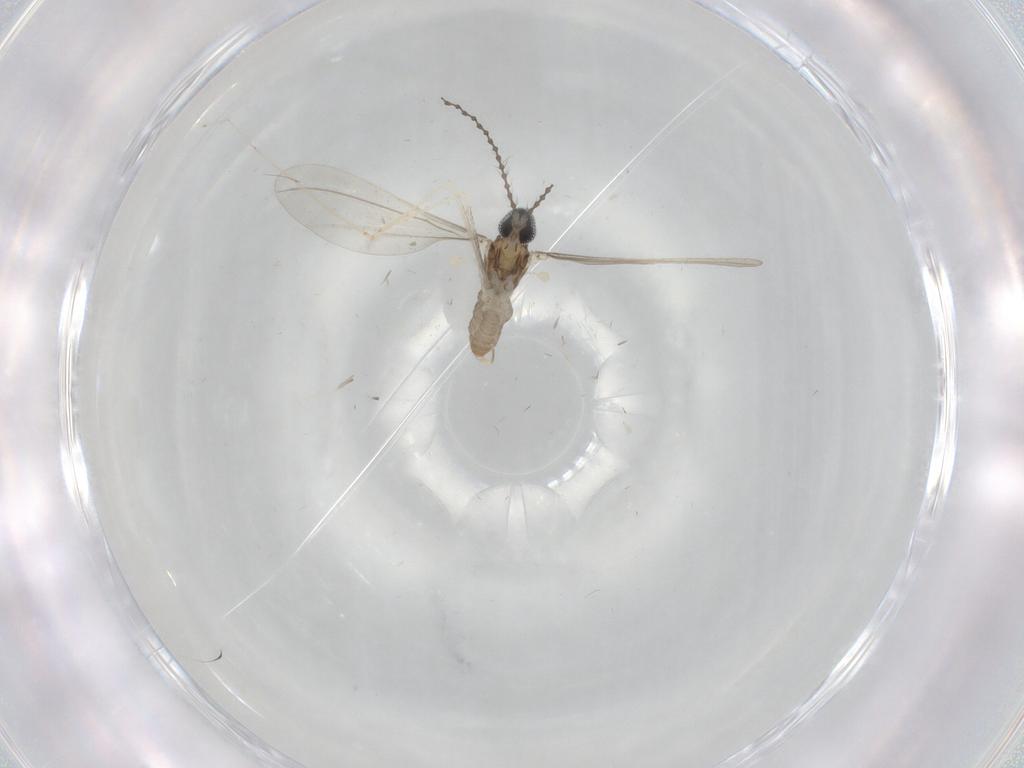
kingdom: Animalia
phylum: Arthropoda
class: Insecta
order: Diptera
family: Cecidomyiidae
